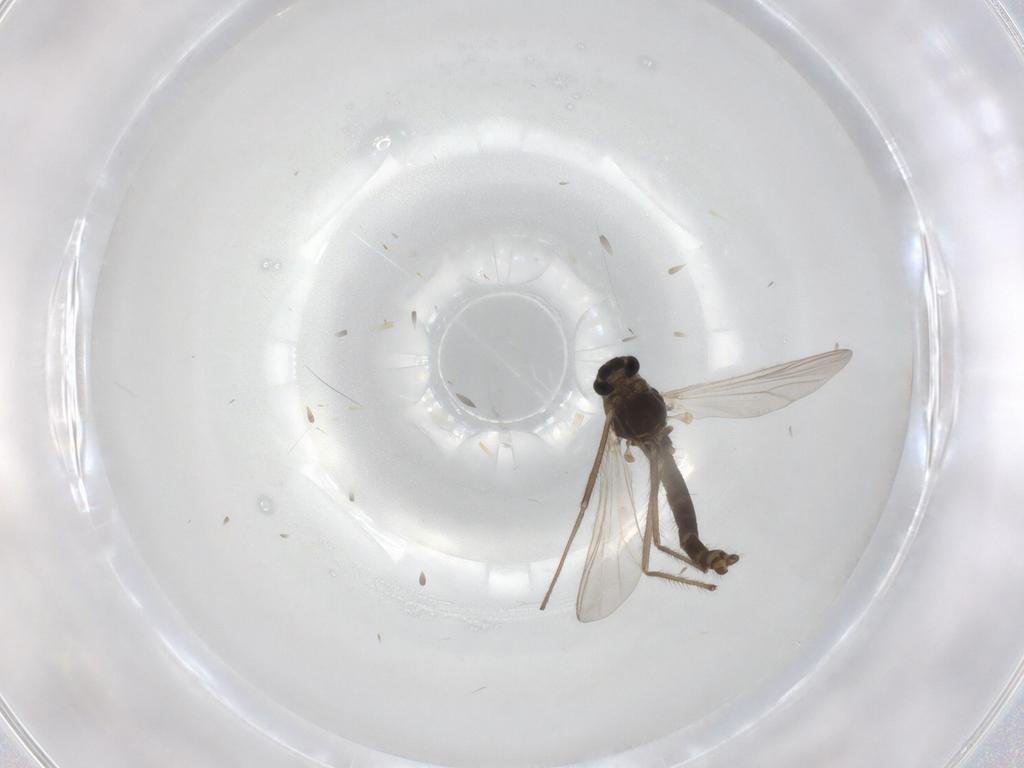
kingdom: Animalia
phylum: Arthropoda
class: Insecta
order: Diptera
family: Chironomidae
